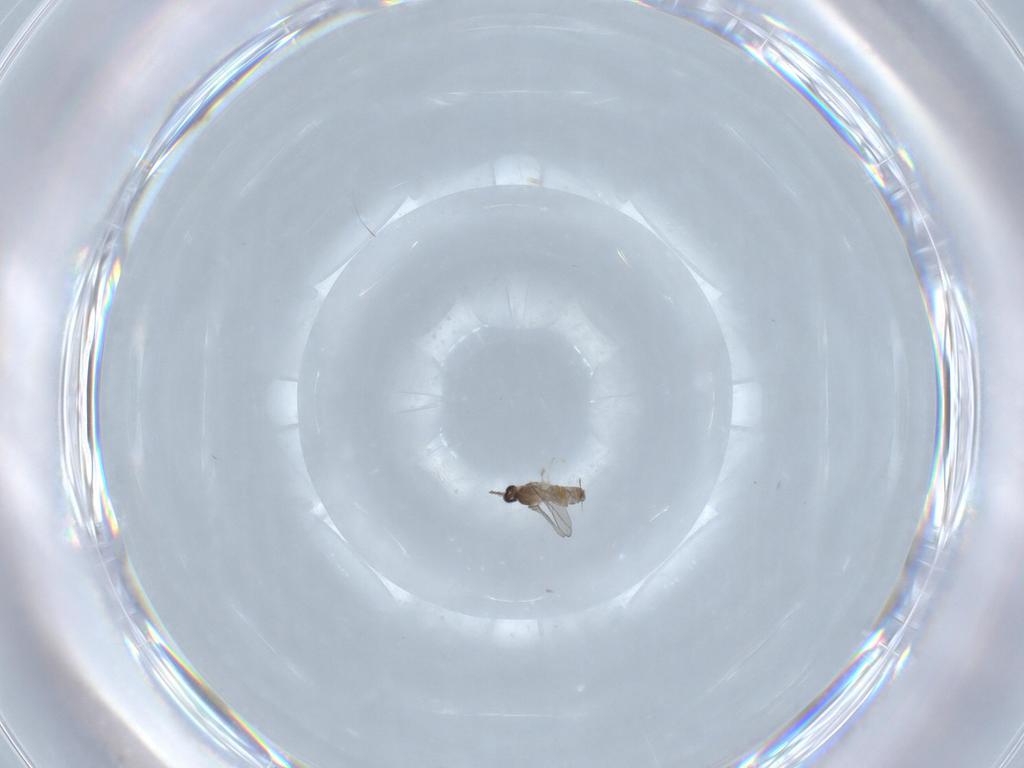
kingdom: Animalia
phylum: Arthropoda
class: Insecta
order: Diptera
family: Cecidomyiidae
